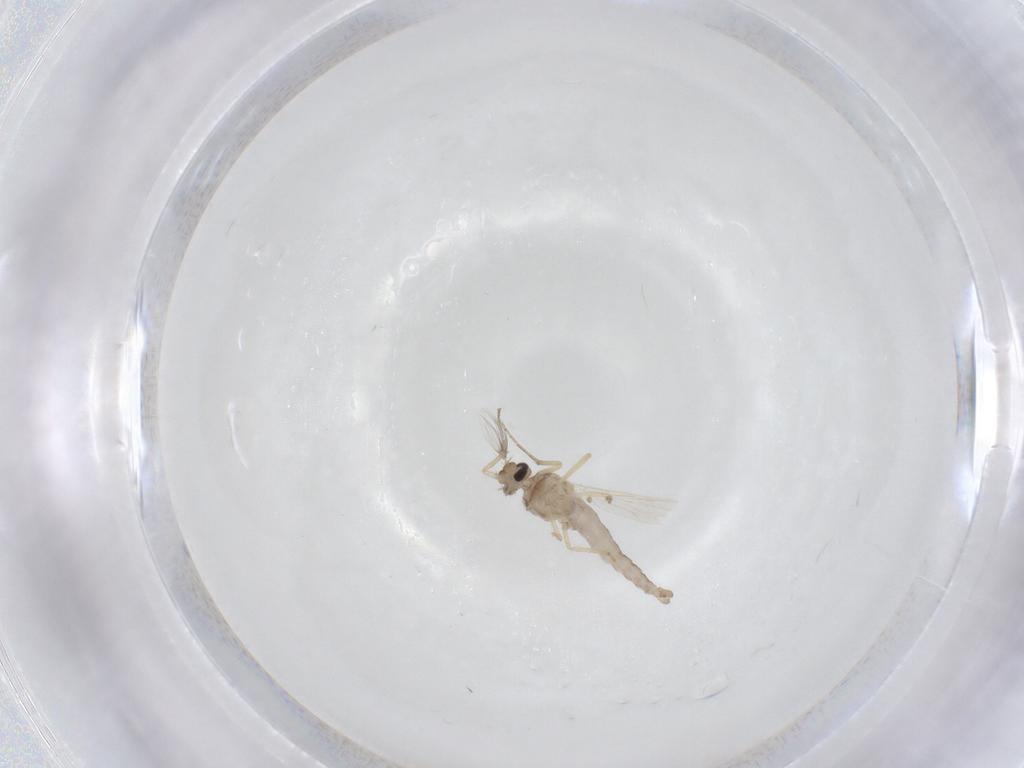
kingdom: Animalia
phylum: Arthropoda
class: Insecta
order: Diptera
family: Ceratopogonidae
